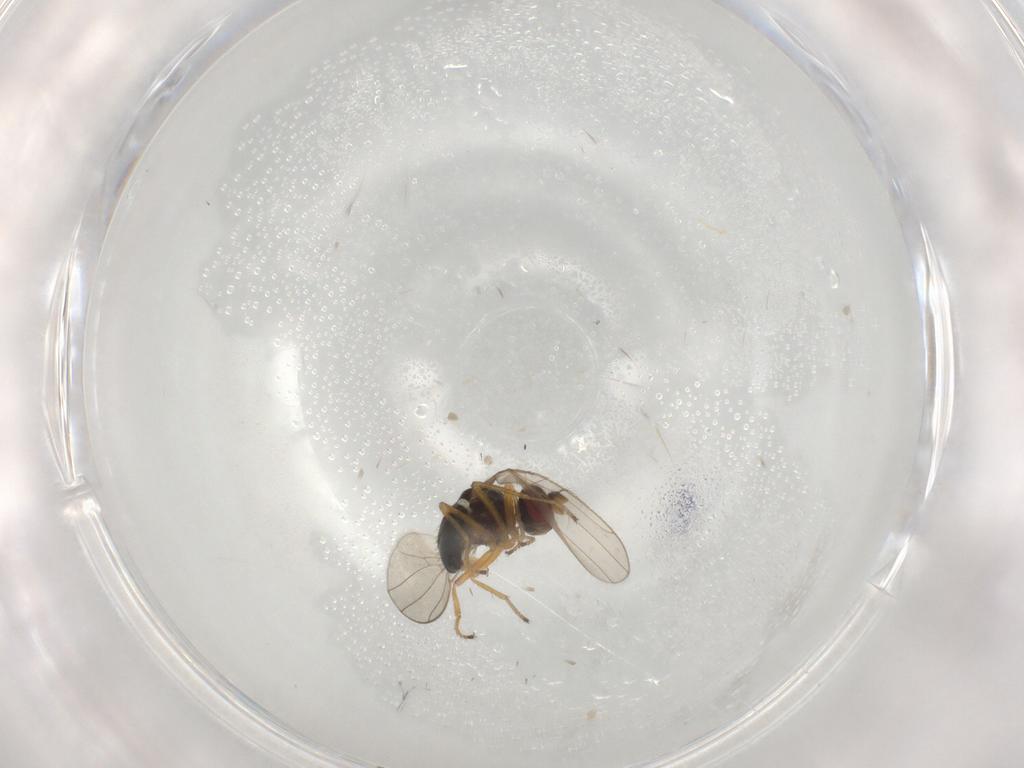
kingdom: Animalia
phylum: Arthropoda
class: Insecta
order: Diptera
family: Ephydridae
